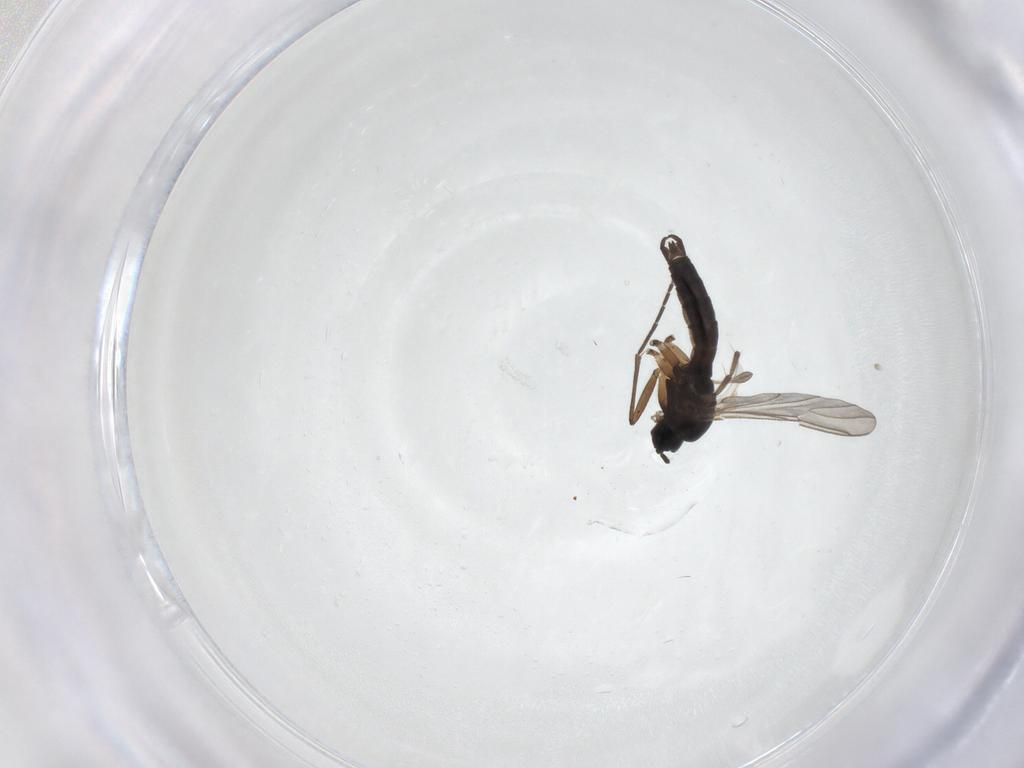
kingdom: Animalia
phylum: Arthropoda
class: Insecta
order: Diptera
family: Sciaridae
